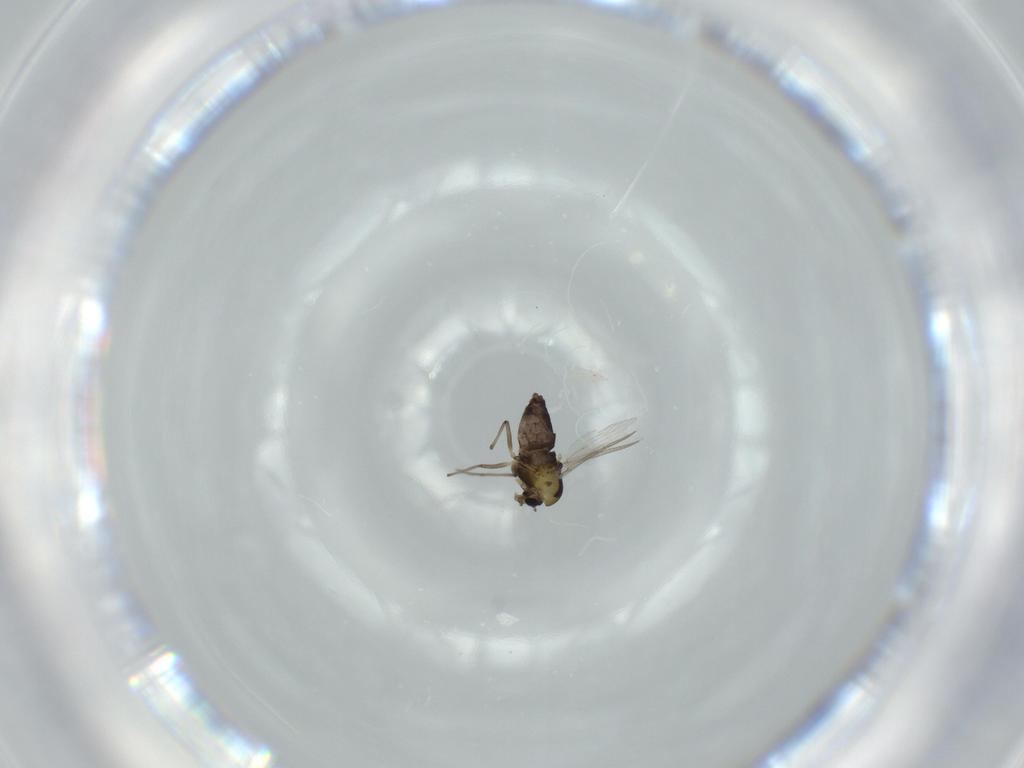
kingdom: Animalia
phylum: Arthropoda
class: Insecta
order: Diptera
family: Chironomidae
